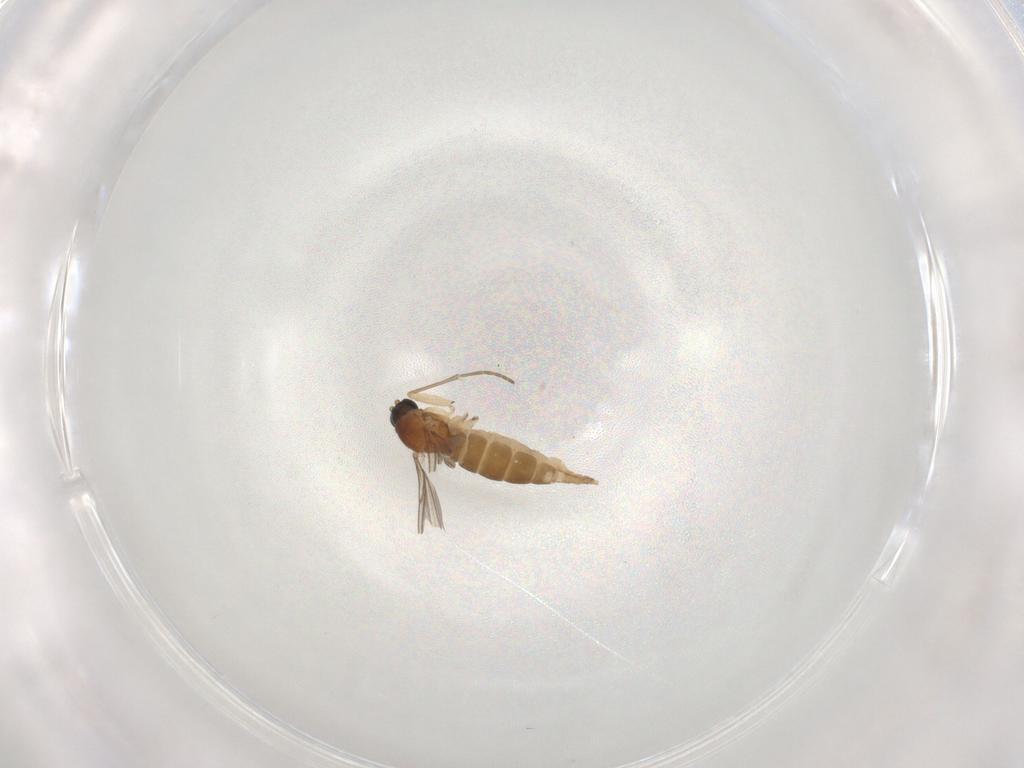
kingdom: Animalia
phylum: Arthropoda
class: Insecta
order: Diptera
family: Sciaridae
